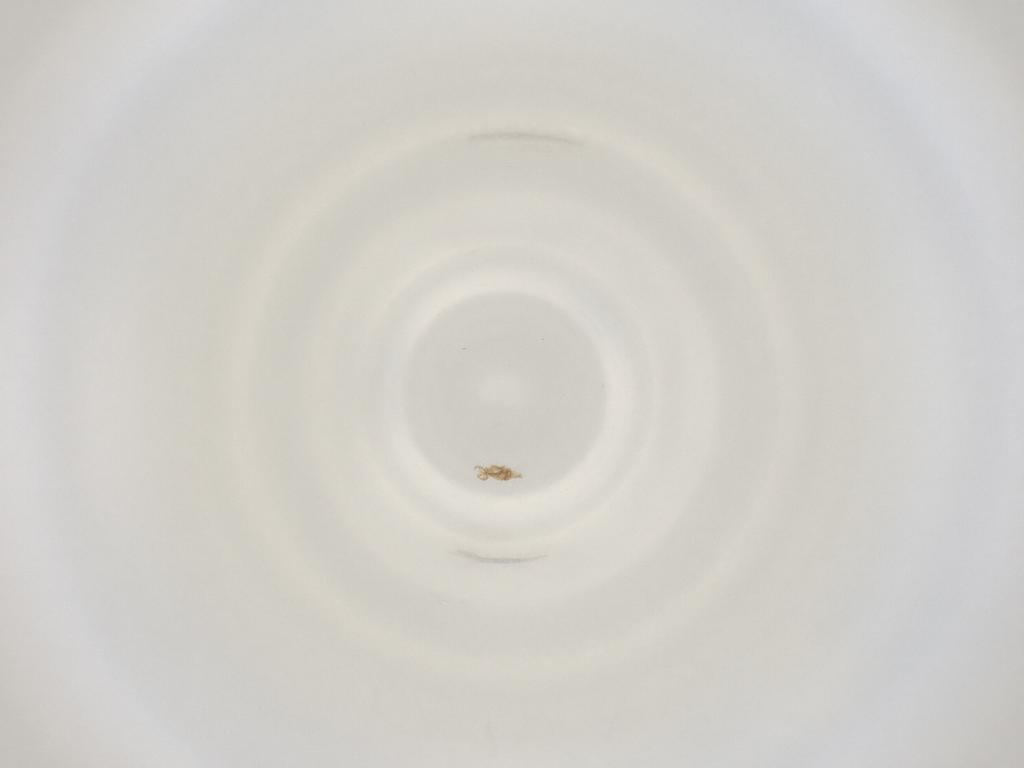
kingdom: Animalia
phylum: Arthropoda
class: Insecta
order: Diptera
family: Cecidomyiidae
